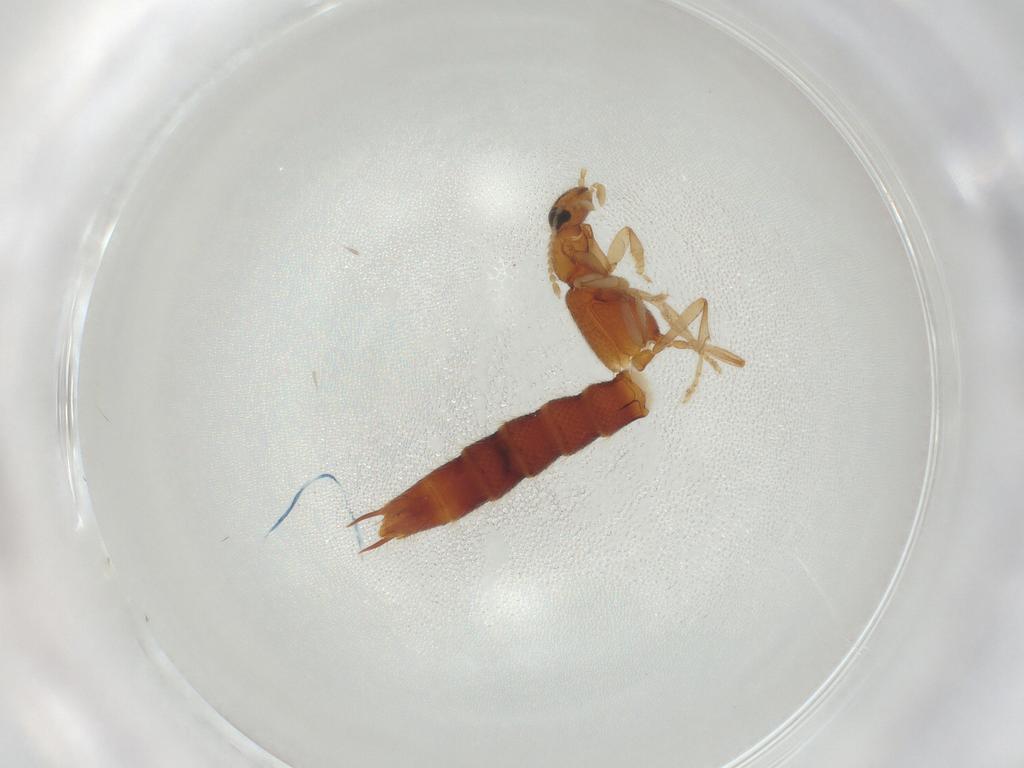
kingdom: Animalia
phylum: Arthropoda
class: Insecta
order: Coleoptera
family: Staphylinidae
